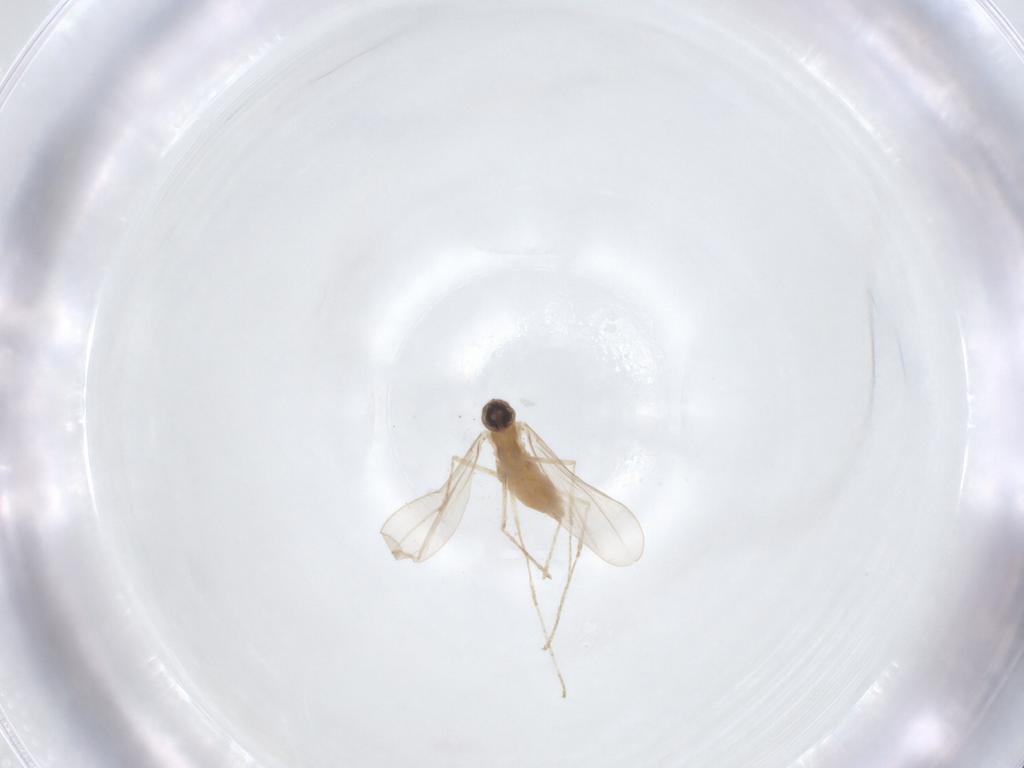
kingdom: Animalia
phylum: Arthropoda
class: Insecta
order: Diptera
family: Cecidomyiidae
